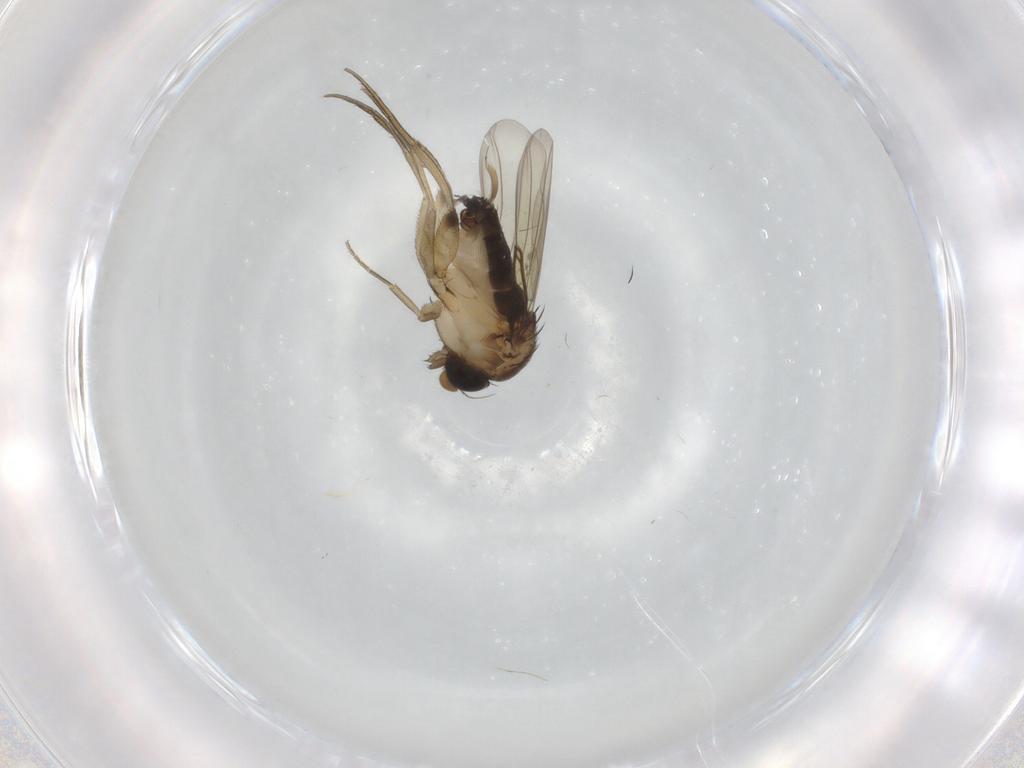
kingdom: Animalia
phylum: Arthropoda
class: Insecta
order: Diptera
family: Phoridae
